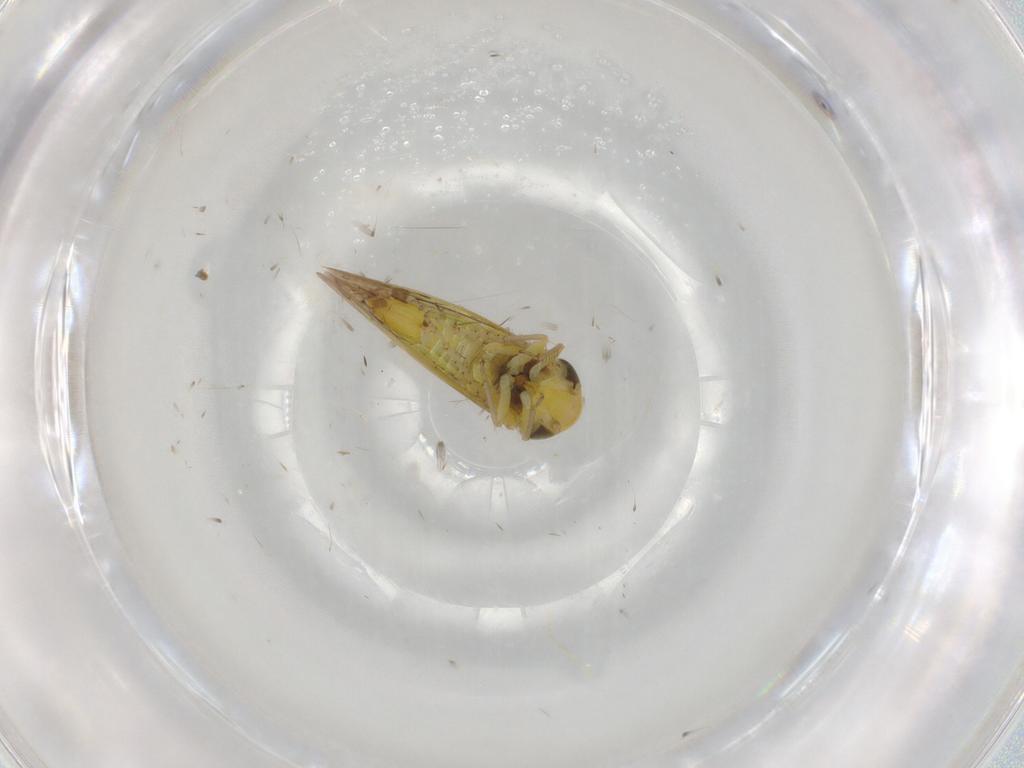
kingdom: Animalia
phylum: Arthropoda
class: Insecta
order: Hemiptera
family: Cicadellidae
